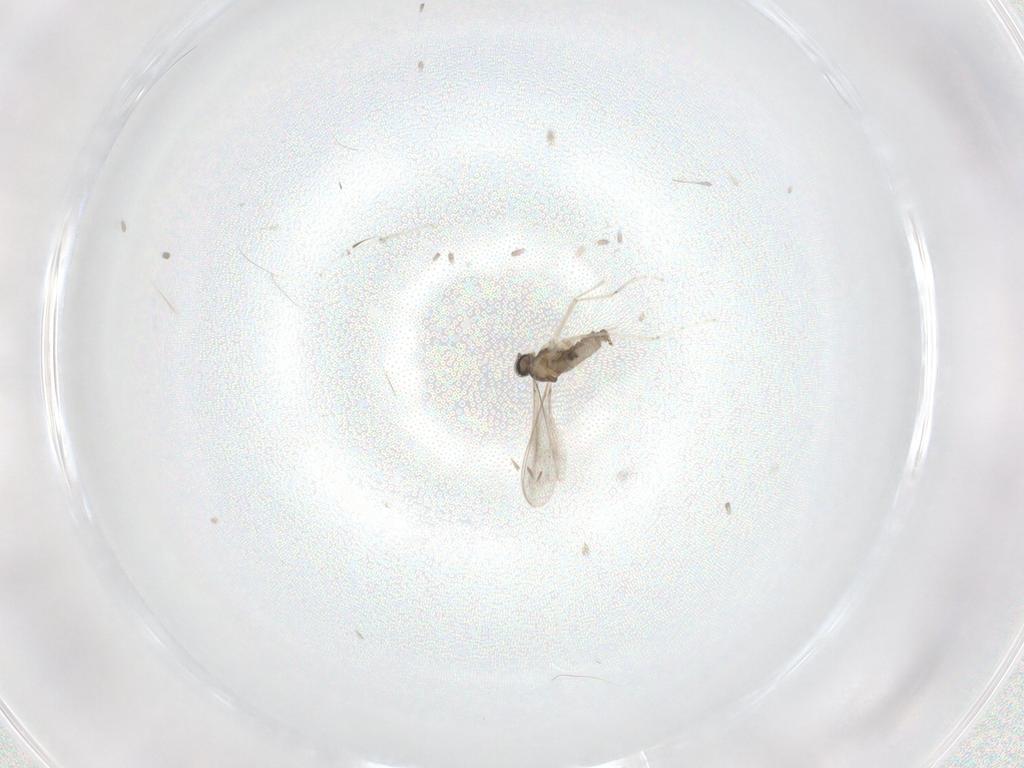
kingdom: Animalia
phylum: Arthropoda
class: Insecta
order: Diptera
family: Cecidomyiidae
